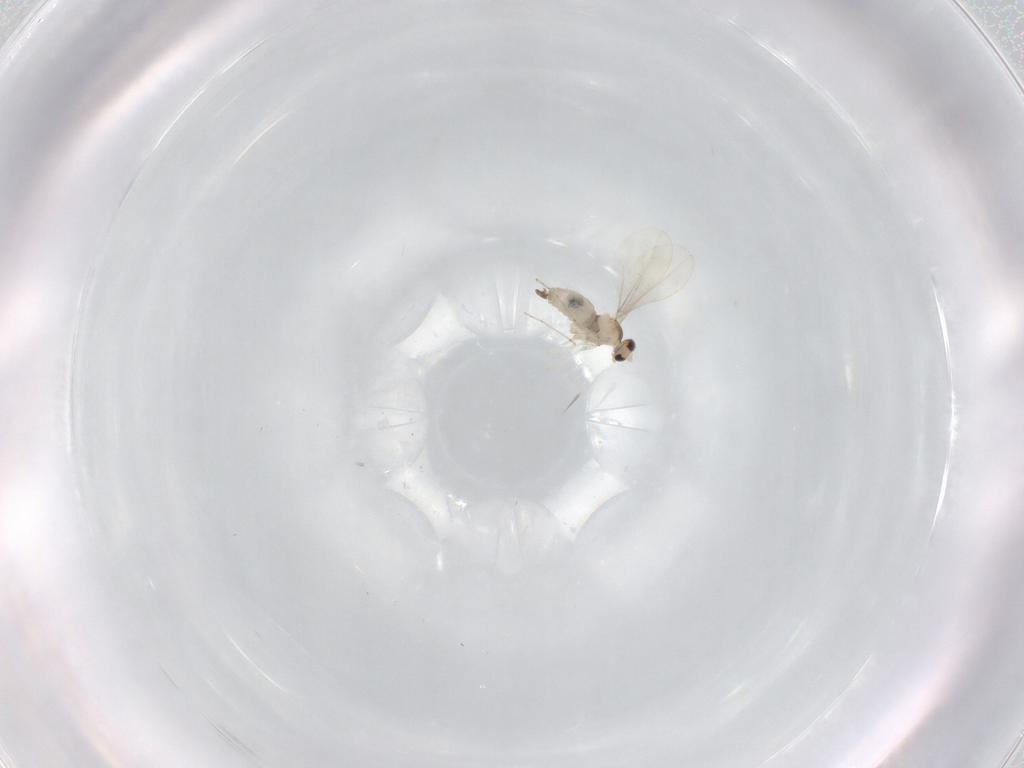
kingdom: Animalia
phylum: Arthropoda
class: Insecta
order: Diptera
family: Cecidomyiidae
